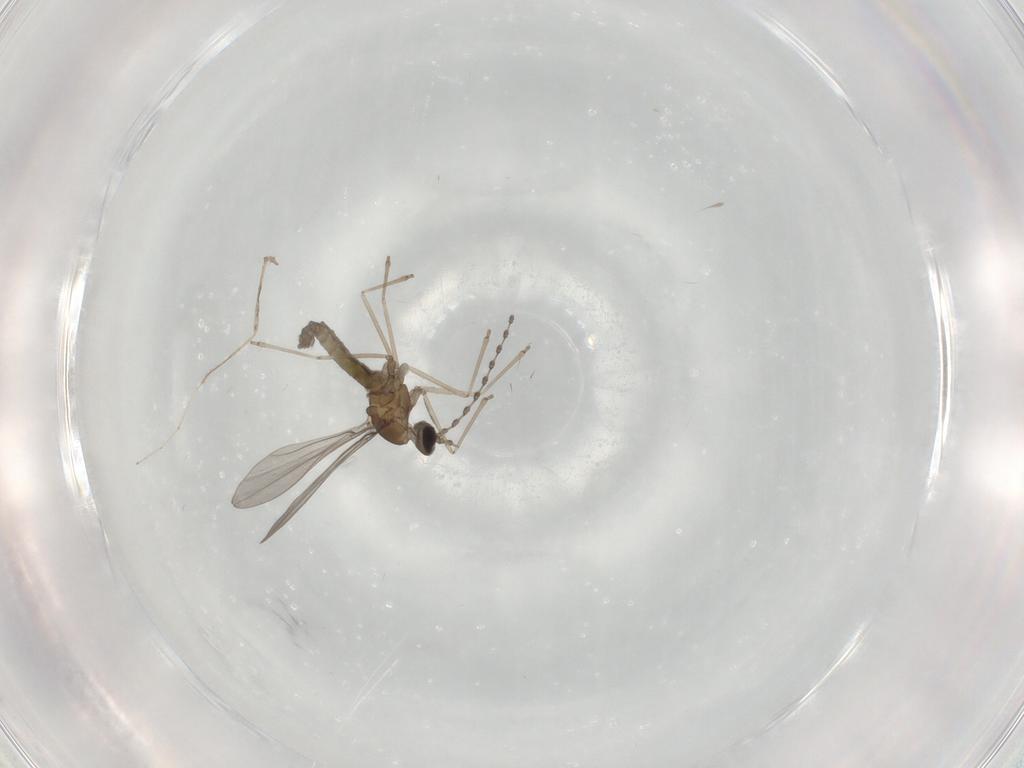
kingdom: Animalia
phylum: Arthropoda
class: Insecta
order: Diptera
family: Cecidomyiidae
